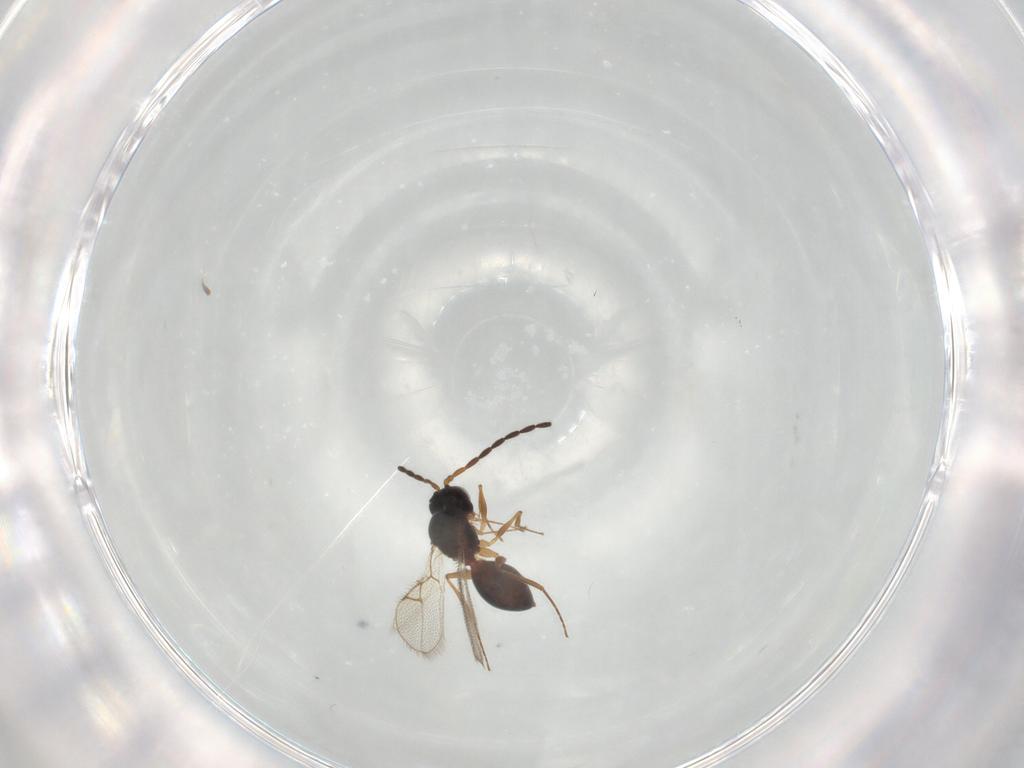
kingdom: Animalia
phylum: Arthropoda
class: Insecta
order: Hymenoptera
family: Figitidae
